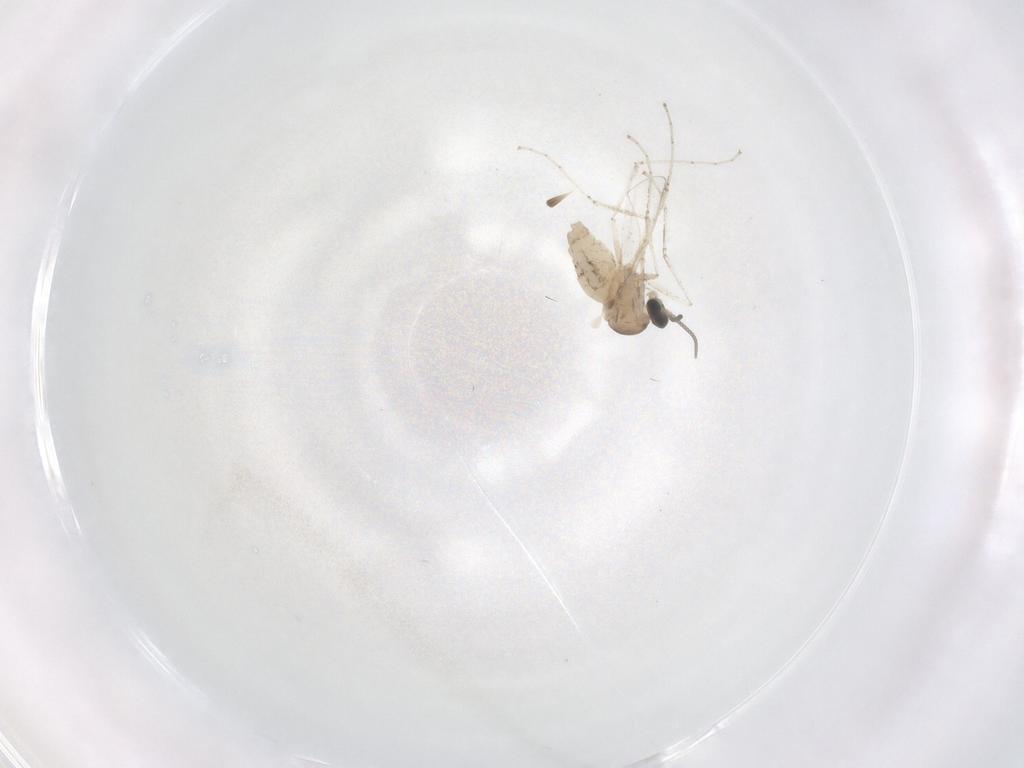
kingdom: Animalia
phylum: Arthropoda
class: Insecta
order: Diptera
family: Cecidomyiidae
